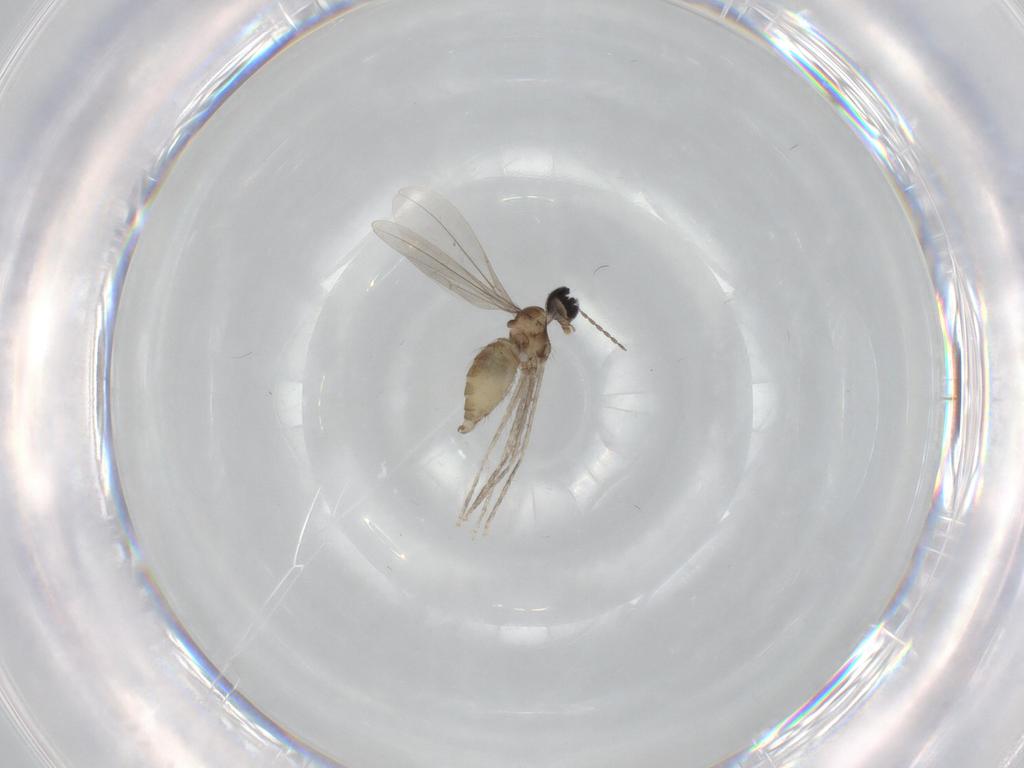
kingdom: Animalia
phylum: Arthropoda
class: Insecta
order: Diptera
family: Cecidomyiidae
